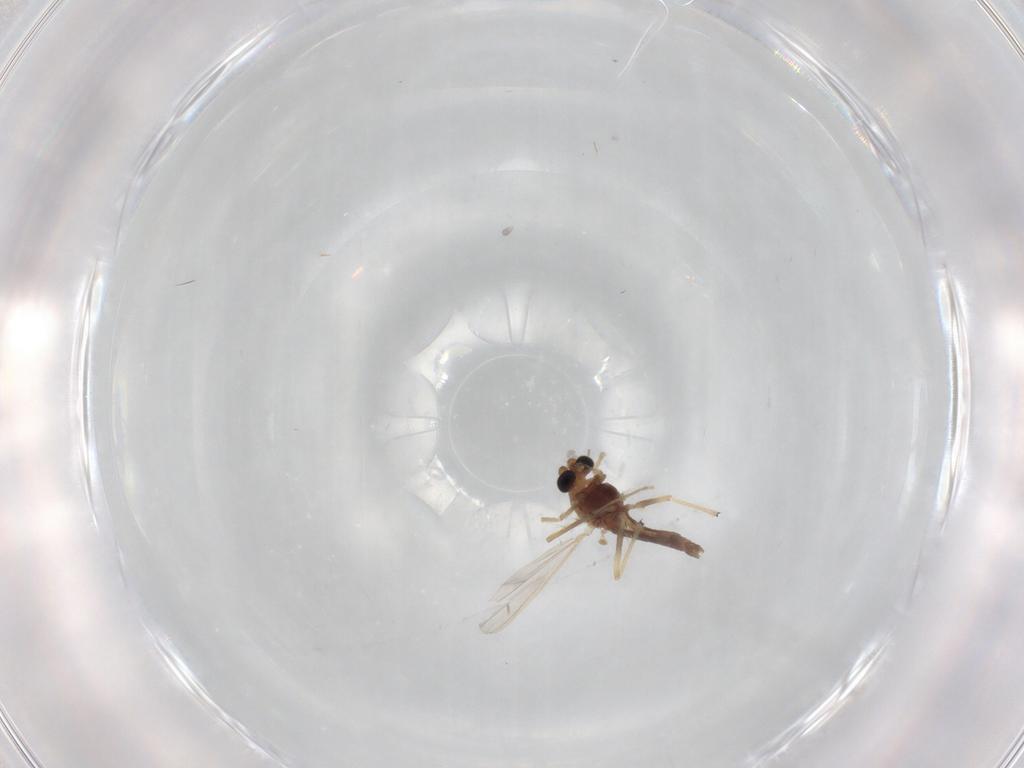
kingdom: Animalia
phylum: Arthropoda
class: Insecta
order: Diptera
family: Chironomidae
